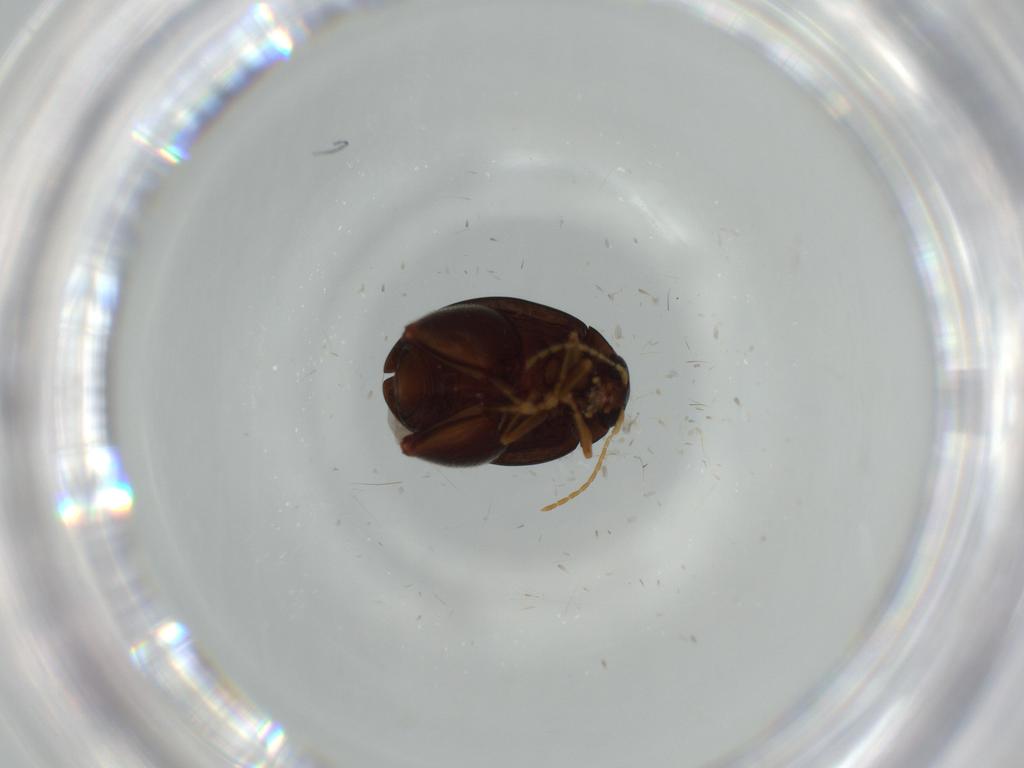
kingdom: Animalia
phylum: Arthropoda
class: Insecta
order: Coleoptera
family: Chrysomelidae
